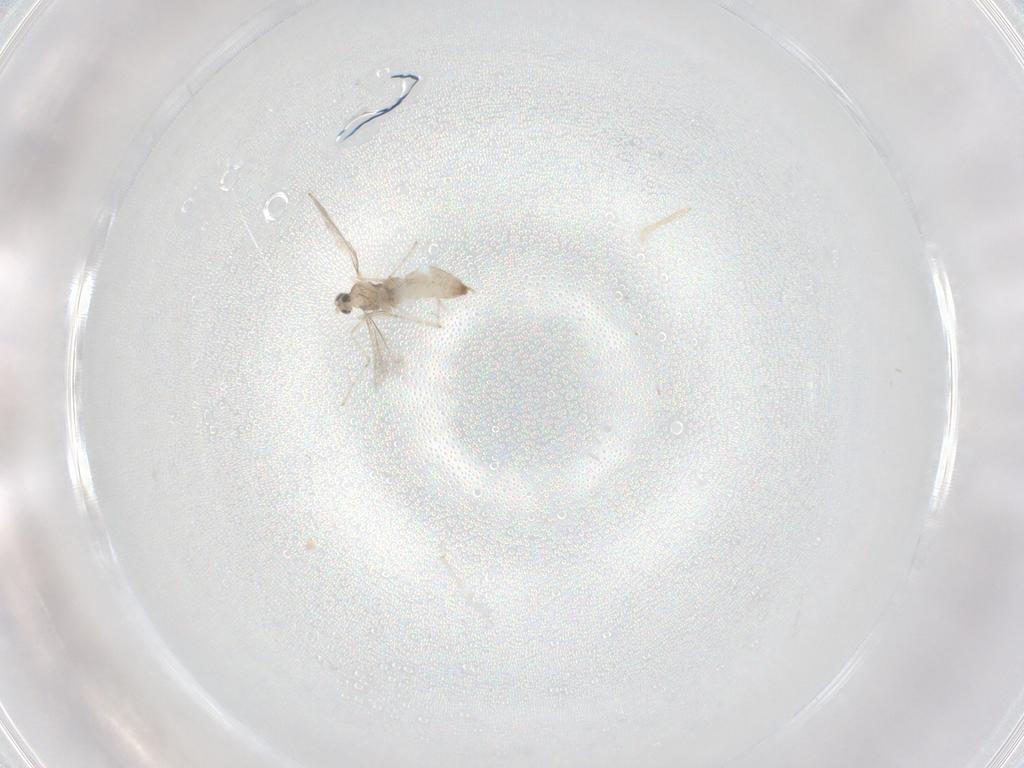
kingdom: Animalia
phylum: Arthropoda
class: Insecta
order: Diptera
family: Cecidomyiidae
